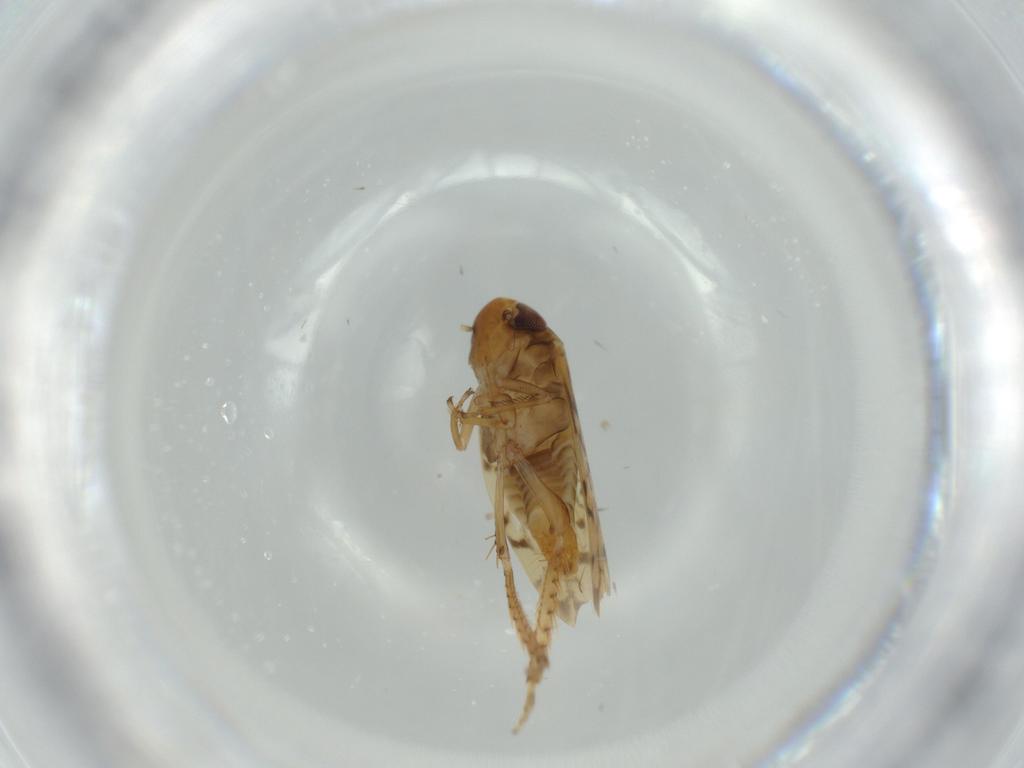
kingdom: Animalia
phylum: Arthropoda
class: Insecta
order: Hemiptera
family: Cicadellidae
